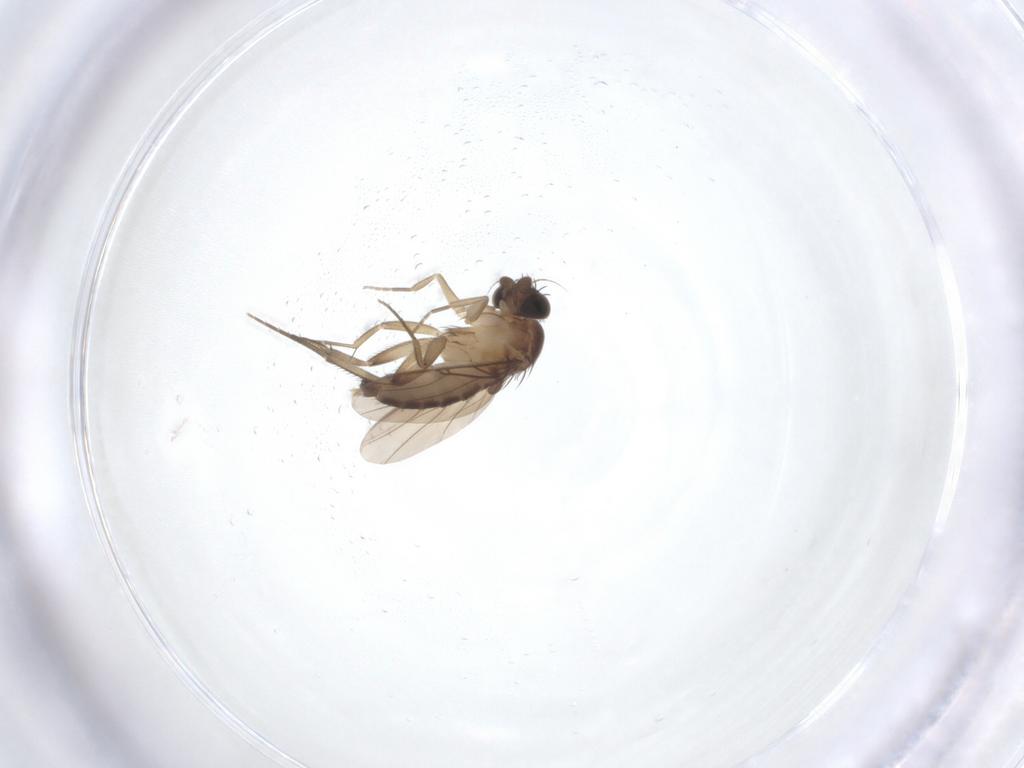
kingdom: Animalia
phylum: Arthropoda
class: Insecta
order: Diptera
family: Phoridae
